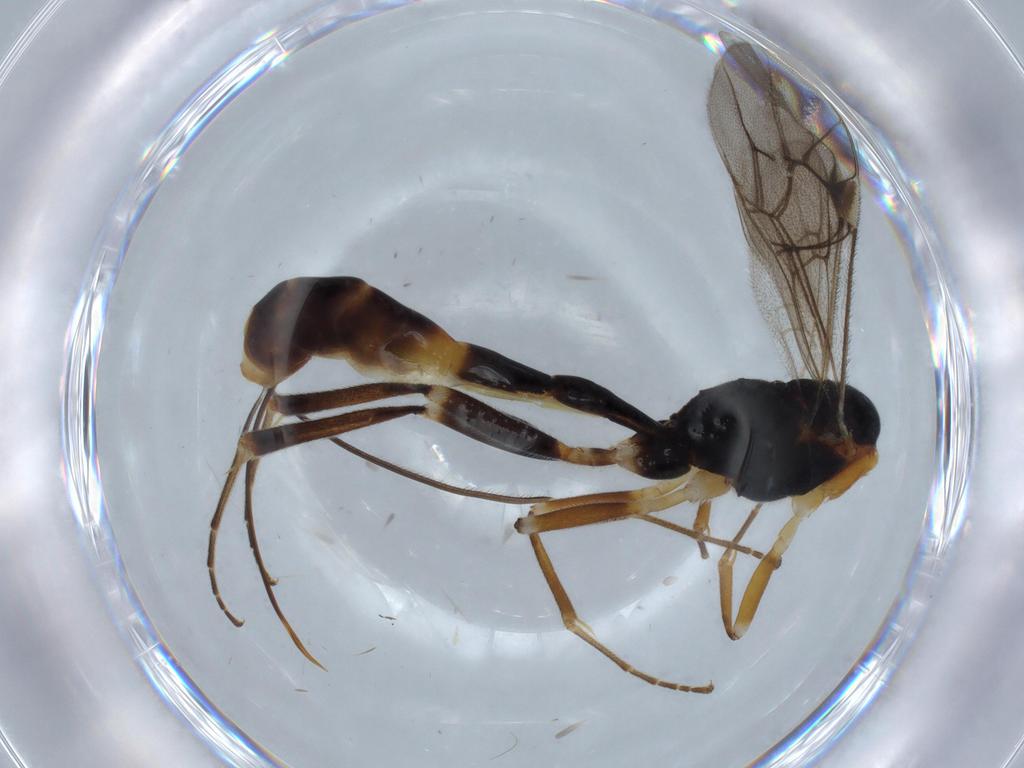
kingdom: Animalia
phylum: Arthropoda
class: Insecta
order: Hymenoptera
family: Ichneumonidae
